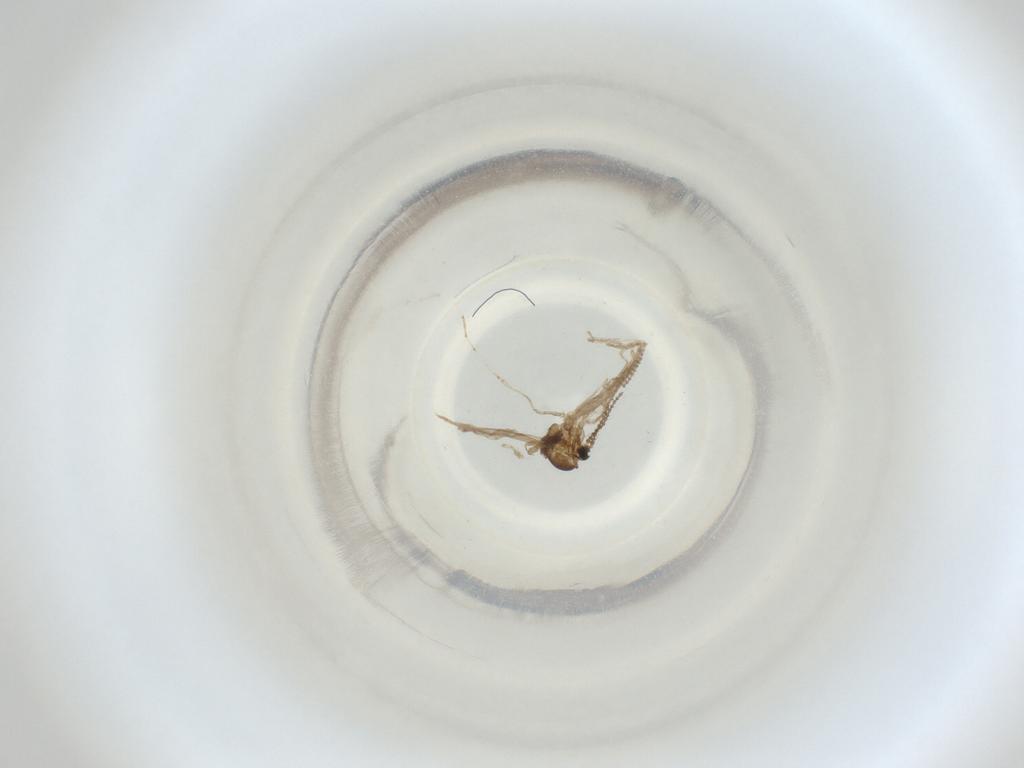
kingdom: Animalia
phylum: Arthropoda
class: Insecta
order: Diptera
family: Cecidomyiidae
